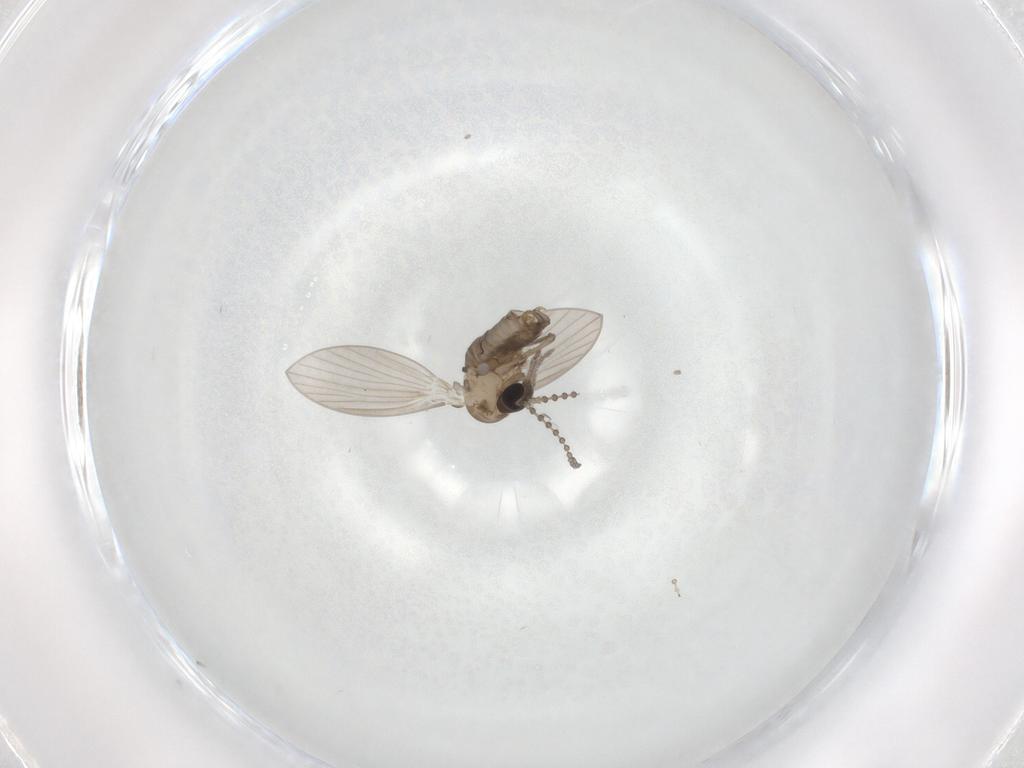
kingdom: Animalia
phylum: Arthropoda
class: Insecta
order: Diptera
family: Psychodidae
